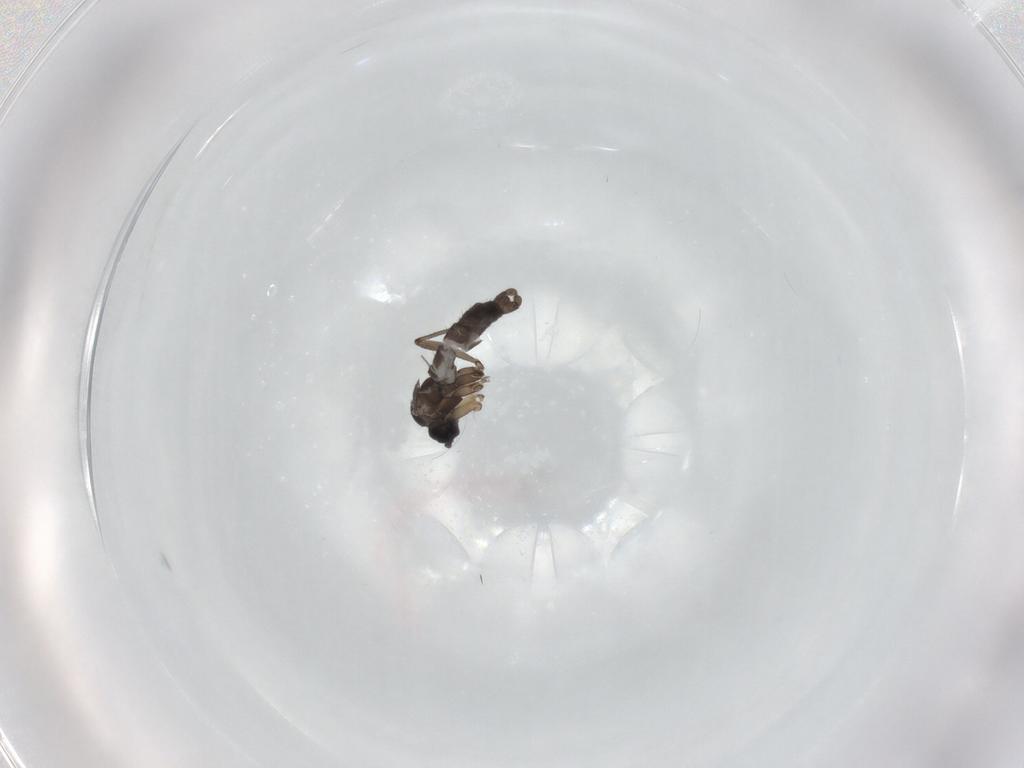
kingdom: Animalia
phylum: Arthropoda
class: Insecta
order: Diptera
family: Sciaridae
